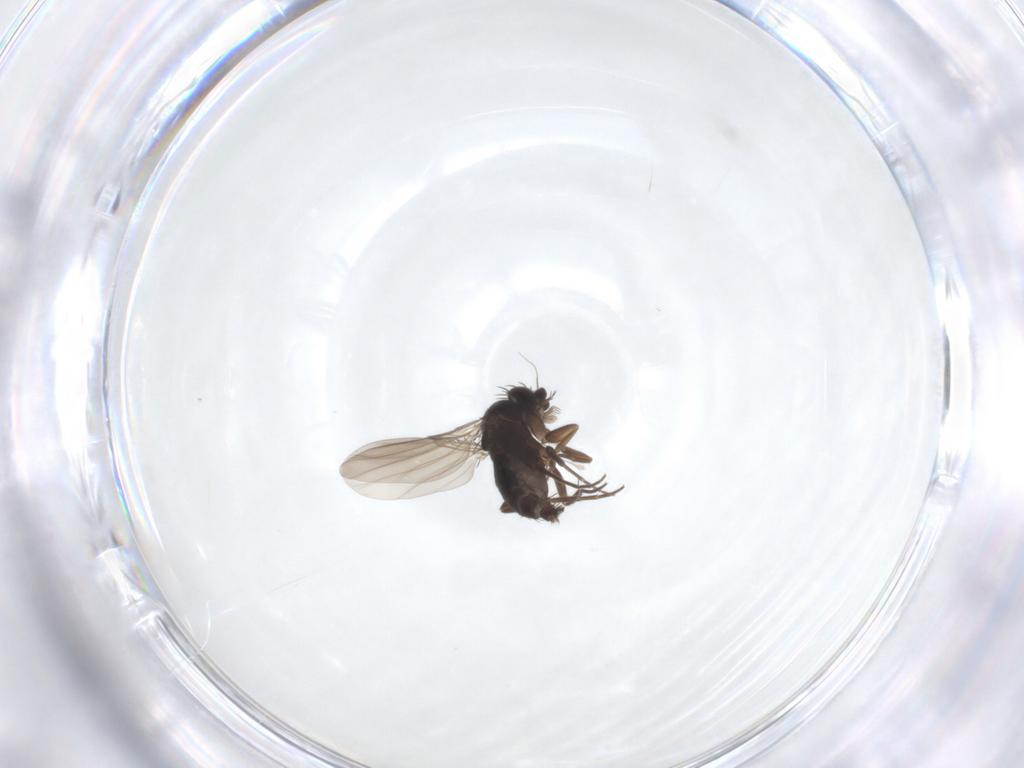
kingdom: Animalia
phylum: Arthropoda
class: Insecta
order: Diptera
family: Phoridae
